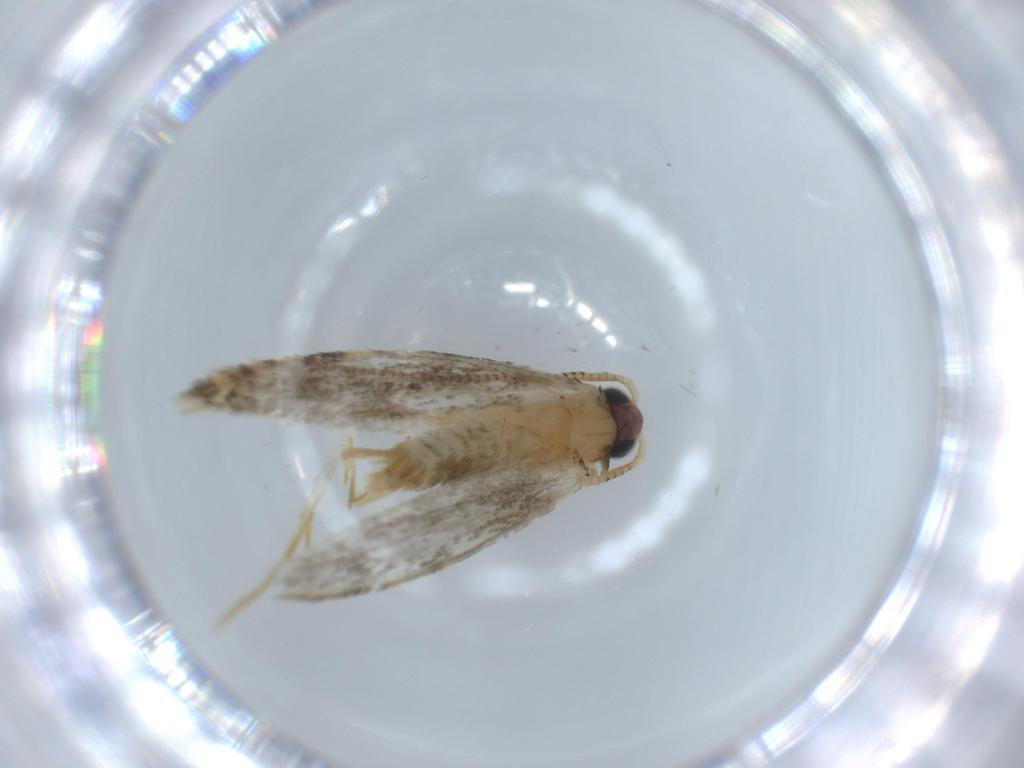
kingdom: Animalia
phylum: Arthropoda
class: Insecta
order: Lepidoptera
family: Tineidae
